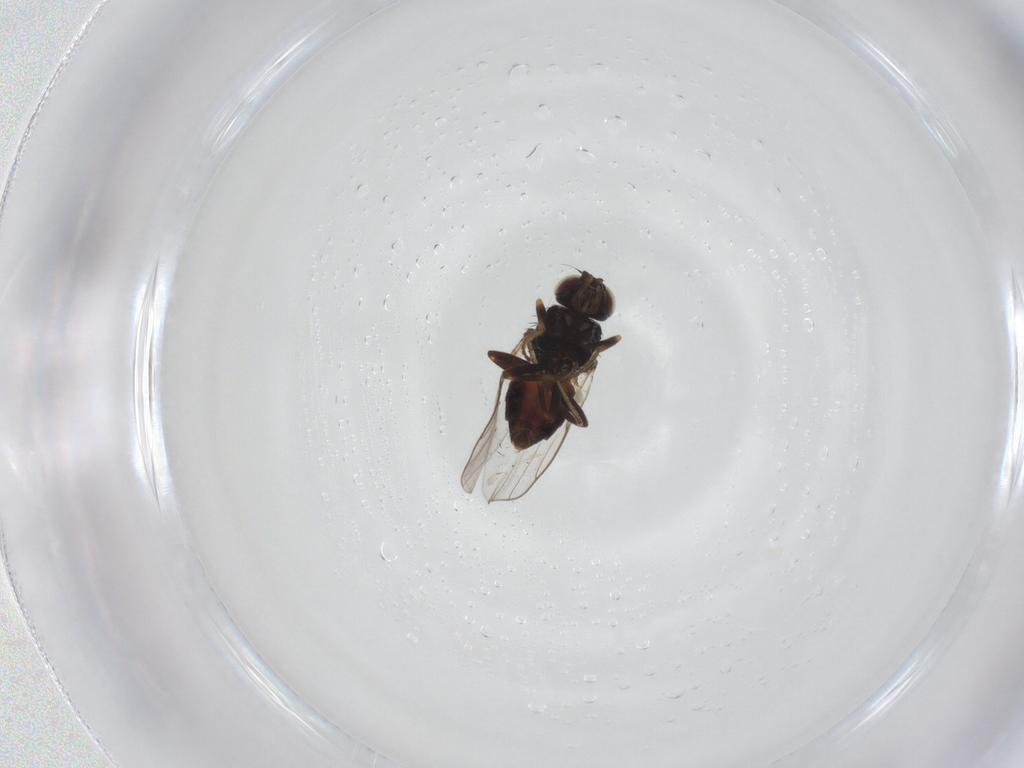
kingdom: Animalia
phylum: Arthropoda
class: Insecta
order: Diptera
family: Chloropidae
